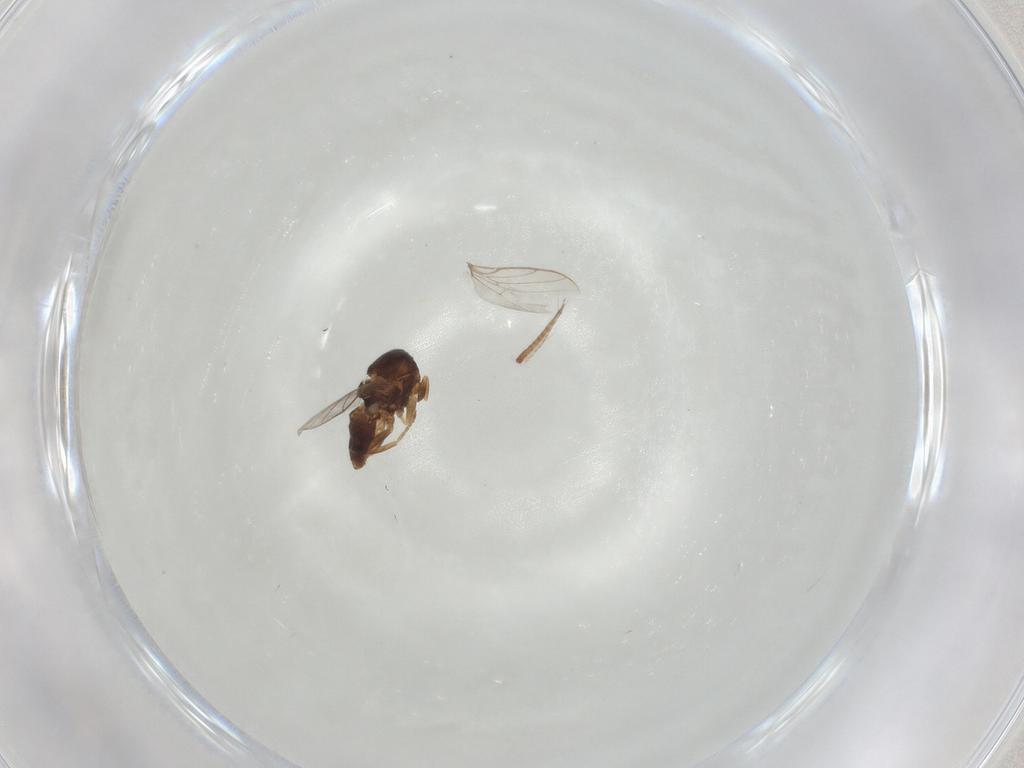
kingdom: Animalia
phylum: Arthropoda
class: Insecta
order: Diptera
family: Chloropidae
